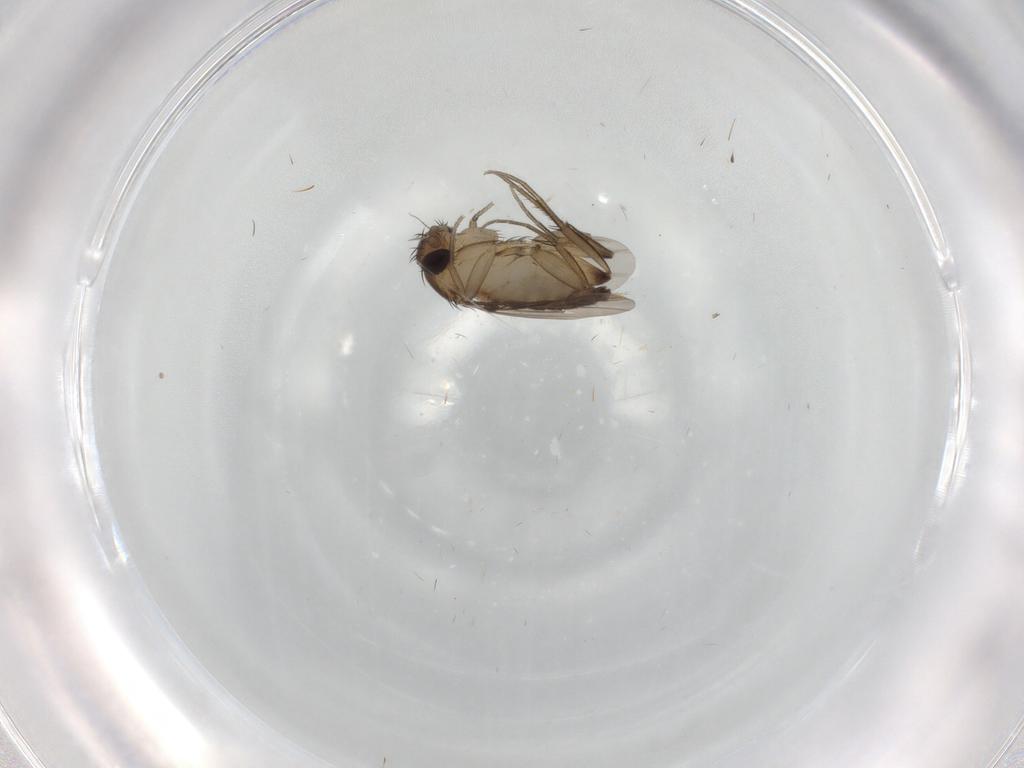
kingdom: Animalia
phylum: Arthropoda
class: Insecta
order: Diptera
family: Phoridae
